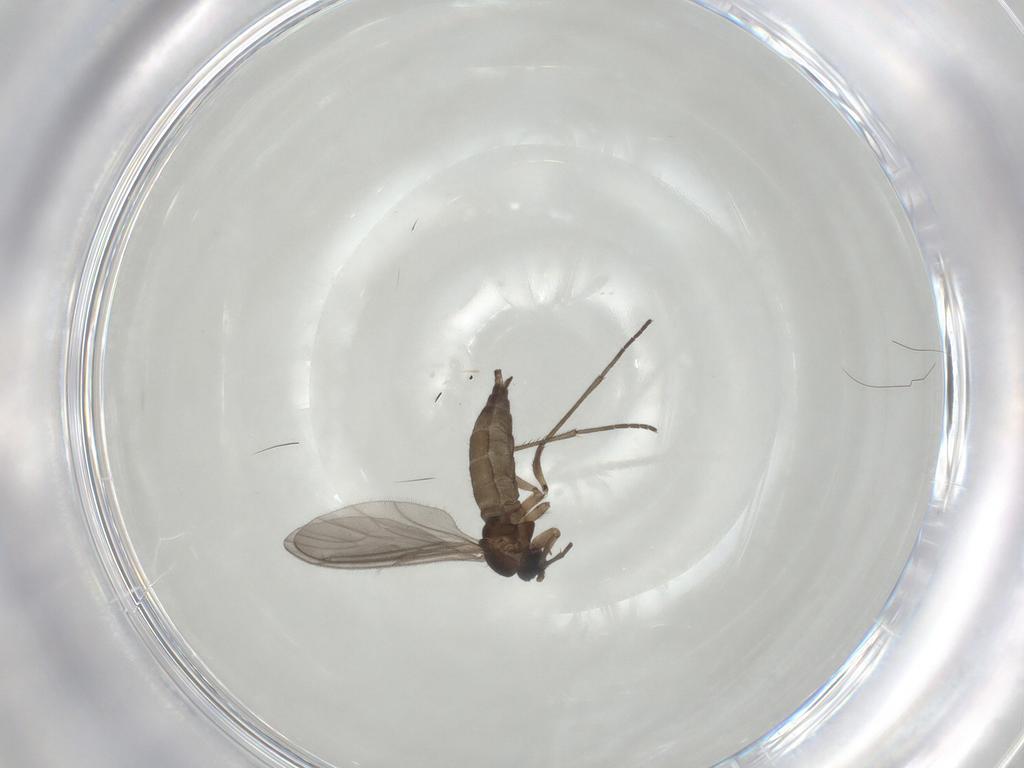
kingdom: Animalia
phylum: Arthropoda
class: Insecta
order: Diptera
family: Sciaridae
